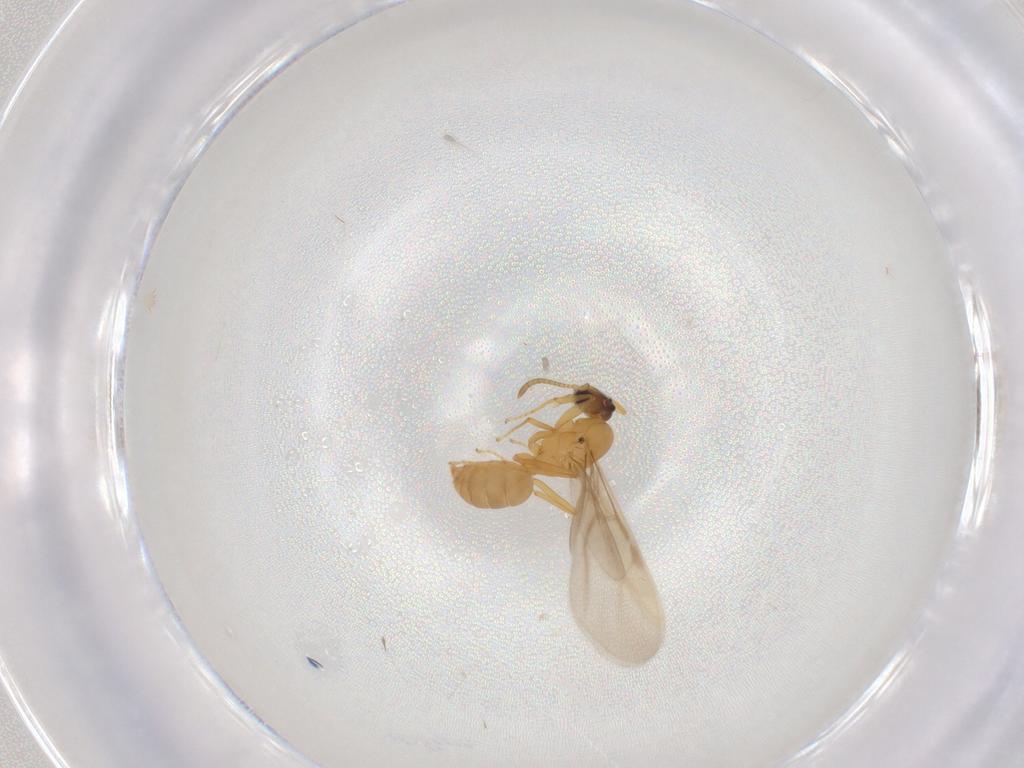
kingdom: Animalia
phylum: Arthropoda
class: Insecta
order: Hymenoptera
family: Formicidae
